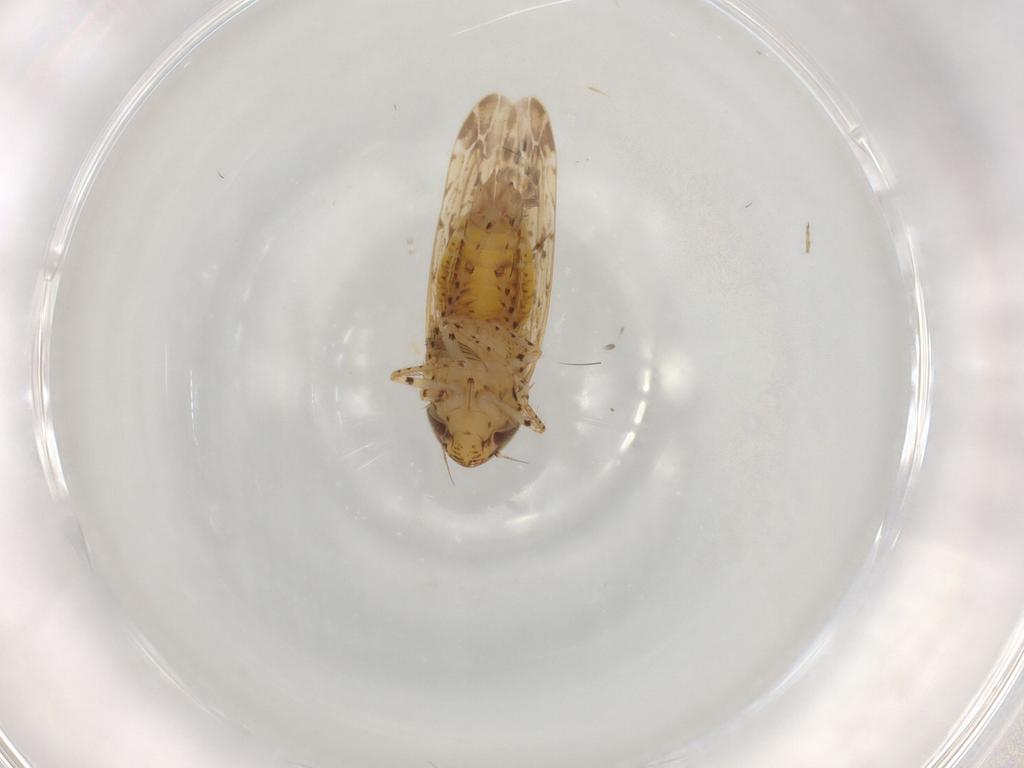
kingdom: Animalia
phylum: Arthropoda
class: Insecta
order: Hemiptera
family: Cicadellidae
